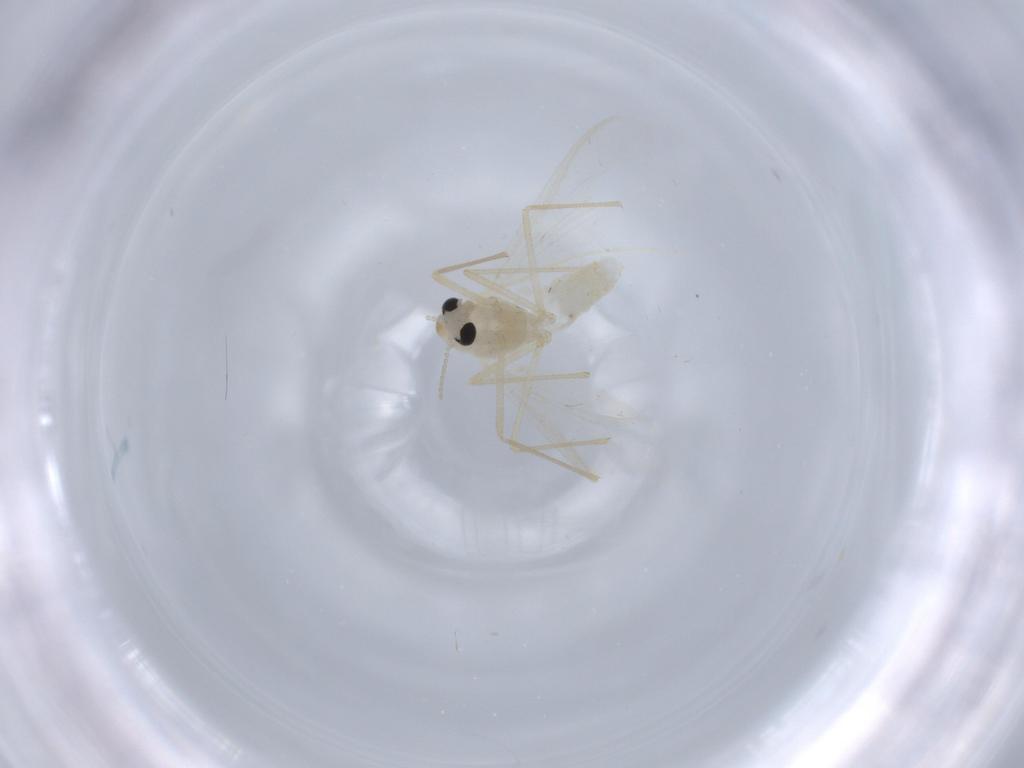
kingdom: Animalia
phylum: Arthropoda
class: Insecta
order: Diptera
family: Chironomidae
